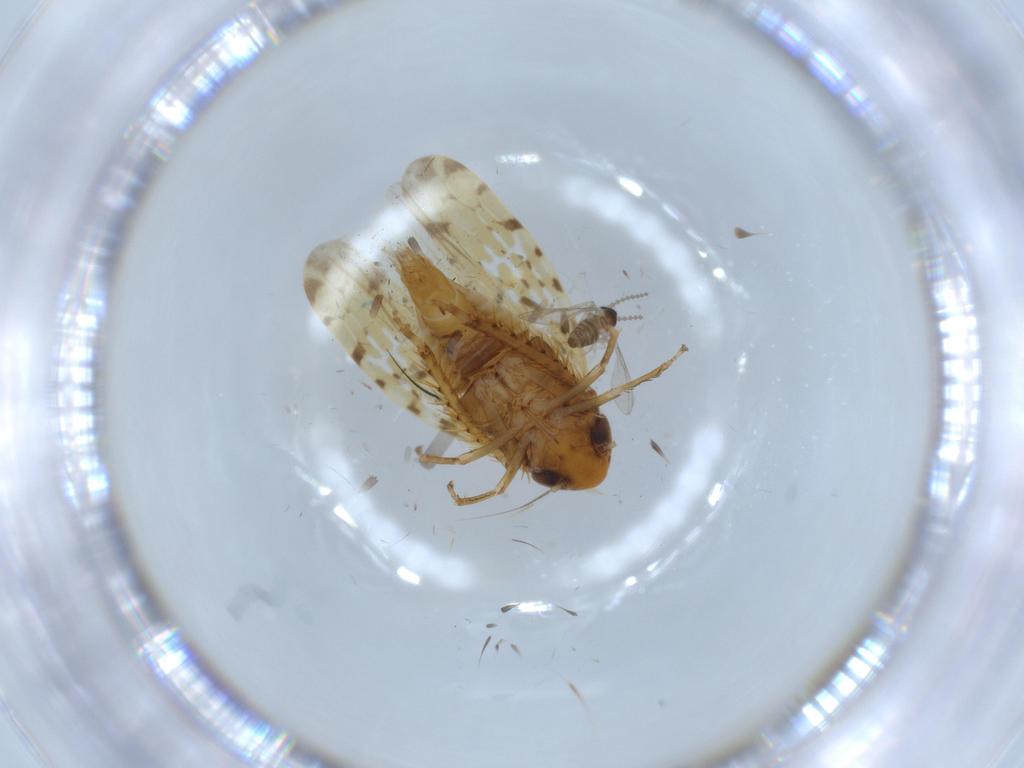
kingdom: Animalia
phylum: Arthropoda
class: Insecta
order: Hemiptera
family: Cicadellidae
